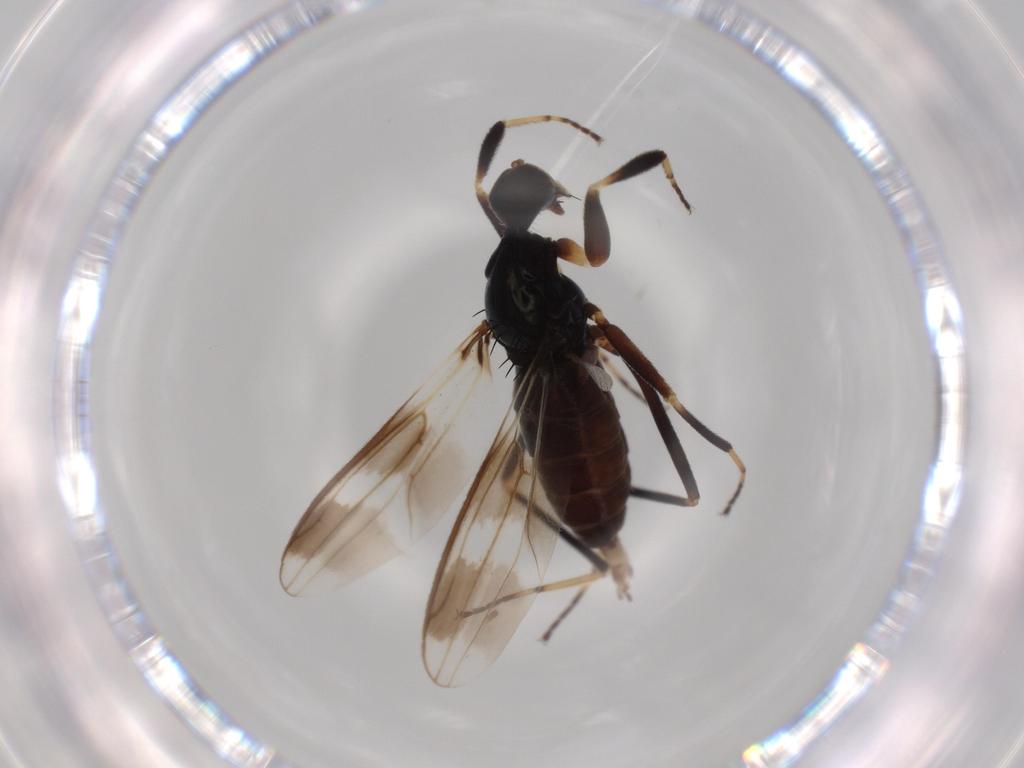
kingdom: Animalia
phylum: Arthropoda
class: Insecta
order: Diptera
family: Hybotidae
